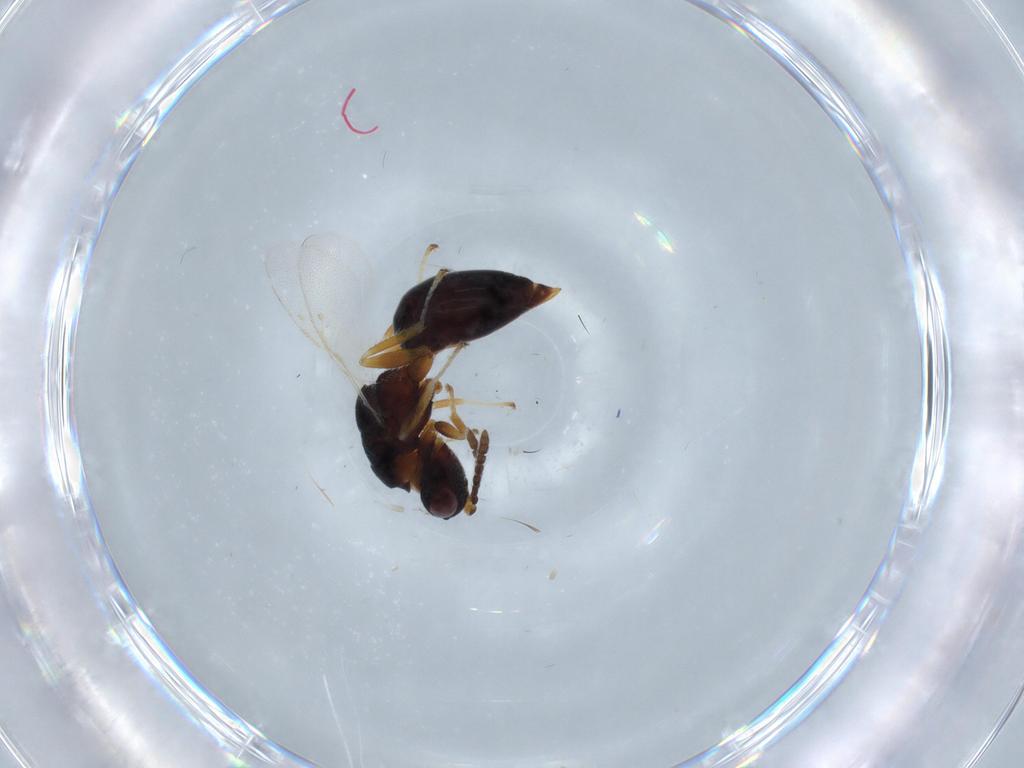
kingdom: Animalia
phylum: Arthropoda
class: Insecta
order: Hymenoptera
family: Eurytomidae
